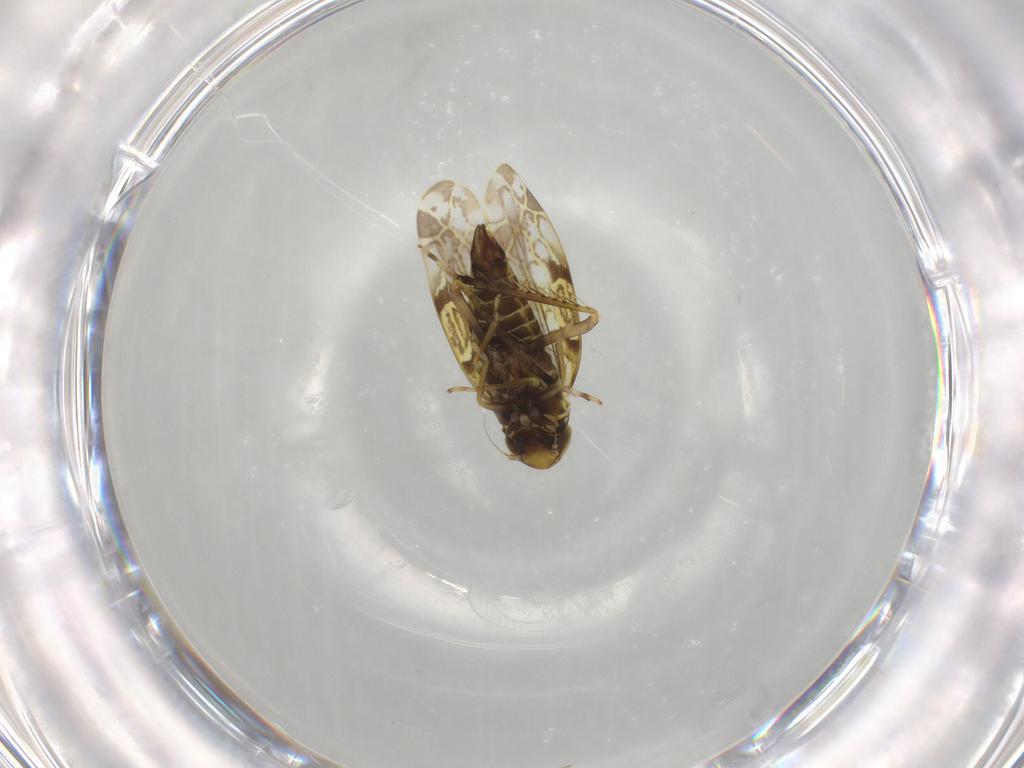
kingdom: Animalia
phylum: Arthropoda
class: Insecta
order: Hemiptera
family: Cicadellidae
